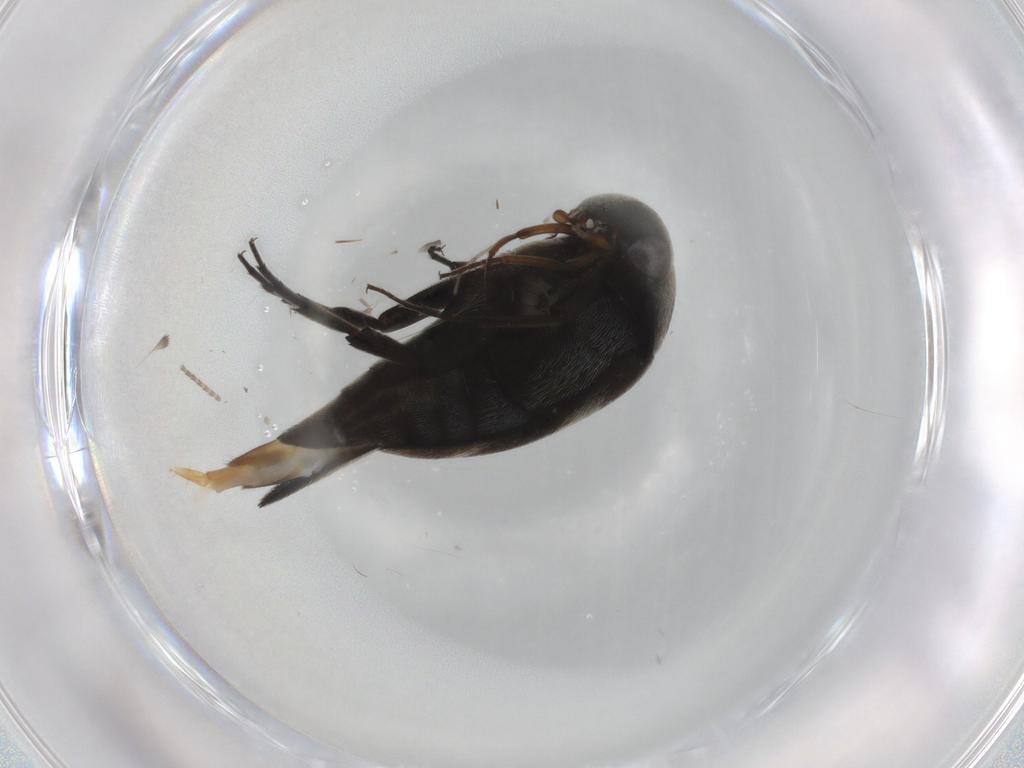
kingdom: Animalia
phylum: Arthropoda
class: Insecta
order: Coleoptera
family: Mordellidae
